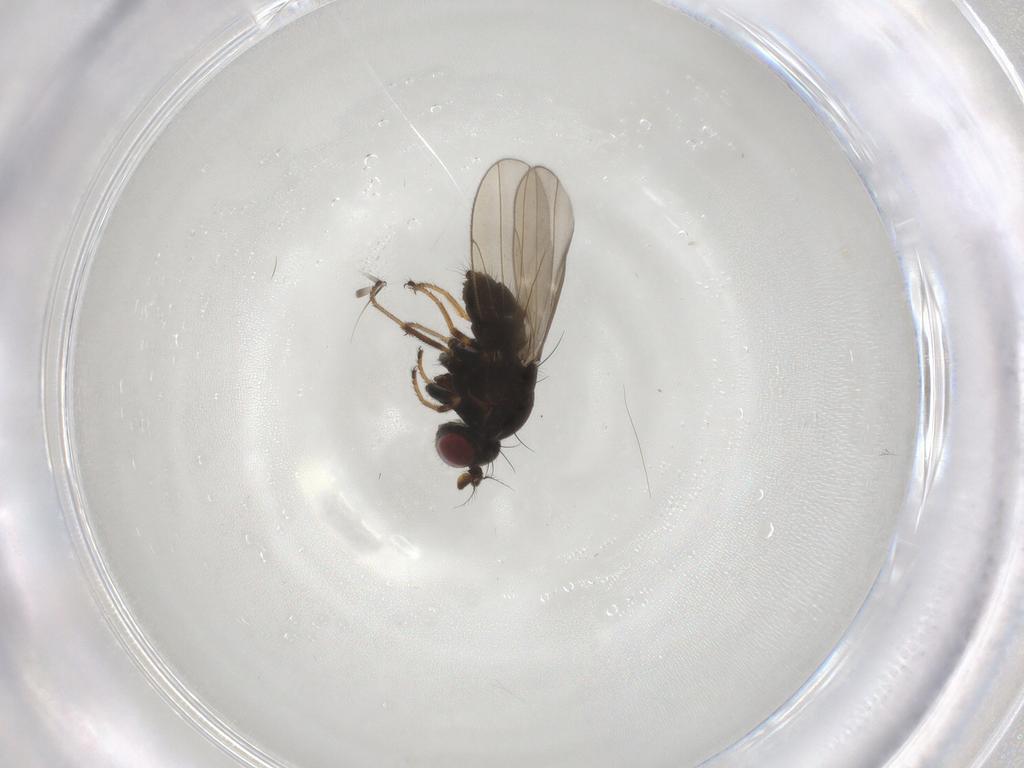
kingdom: Animalia
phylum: Arthropoda
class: Insecta
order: Diptera
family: Ephydridae
